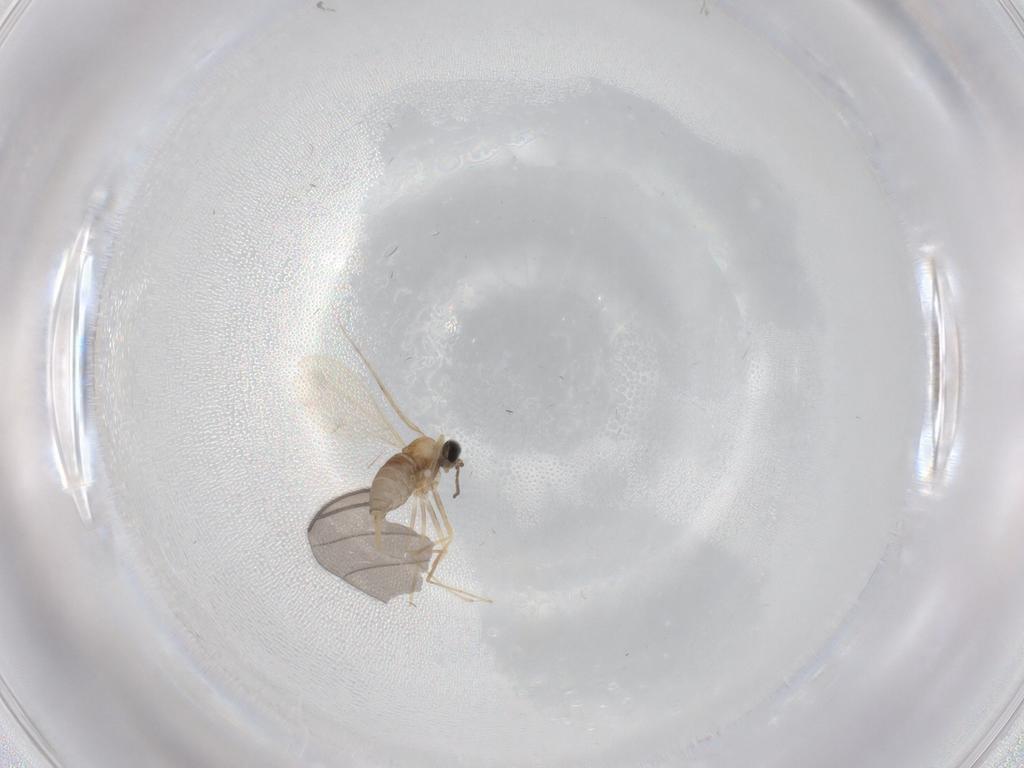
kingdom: Animalia
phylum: Arthropoda
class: Insecta
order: Diptera
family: Cecidomyiidae
